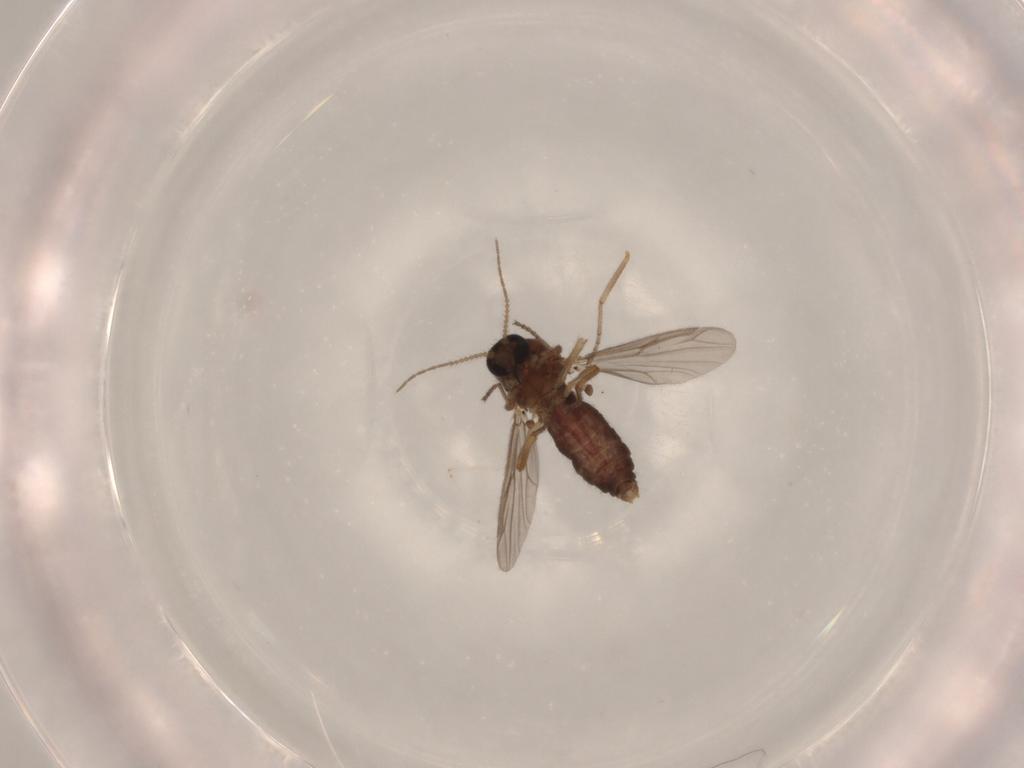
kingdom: Animalia
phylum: Arthropoda
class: Insecta
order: Diptera
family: Ceratopogonidae
